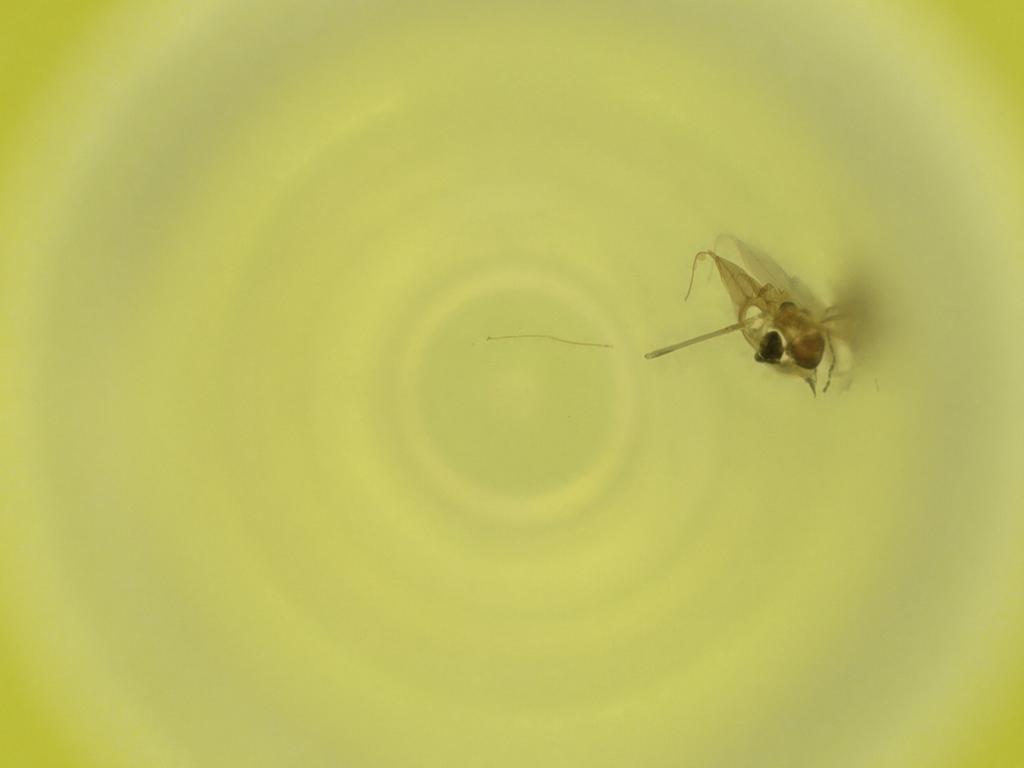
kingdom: Animalia
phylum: Arthropoda
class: Insecta
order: Diptera
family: Cecidomyiidae
